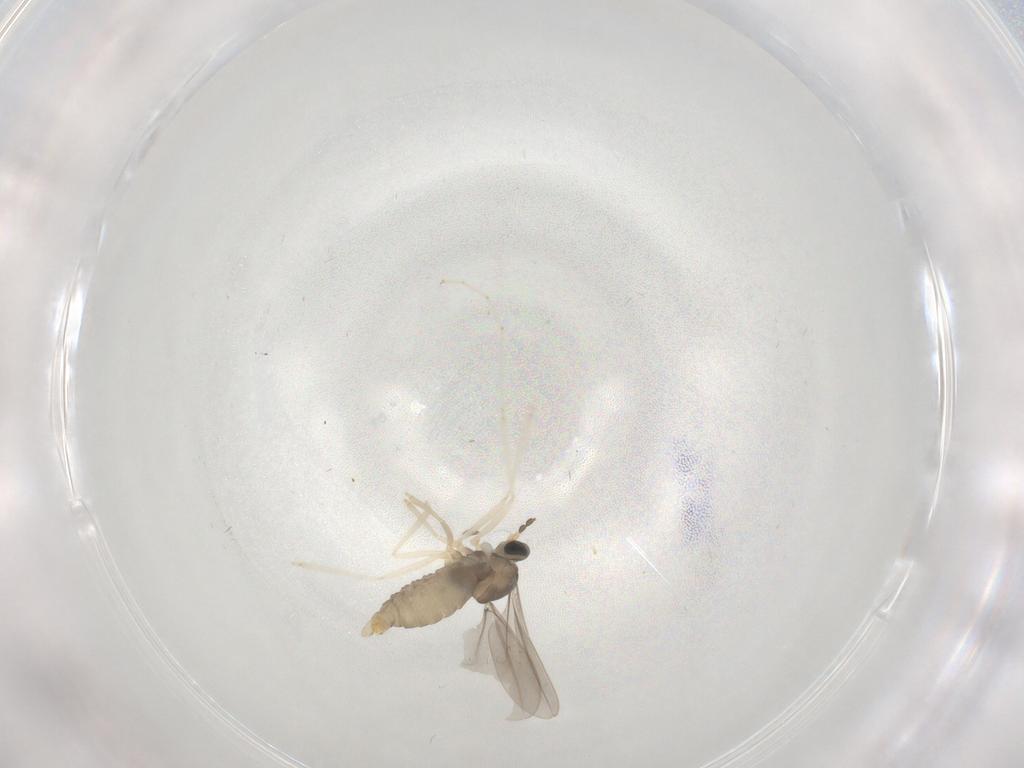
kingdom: Animalia
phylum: Arthropoda
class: Insecta
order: Diptera
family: Cecidomyiidae
